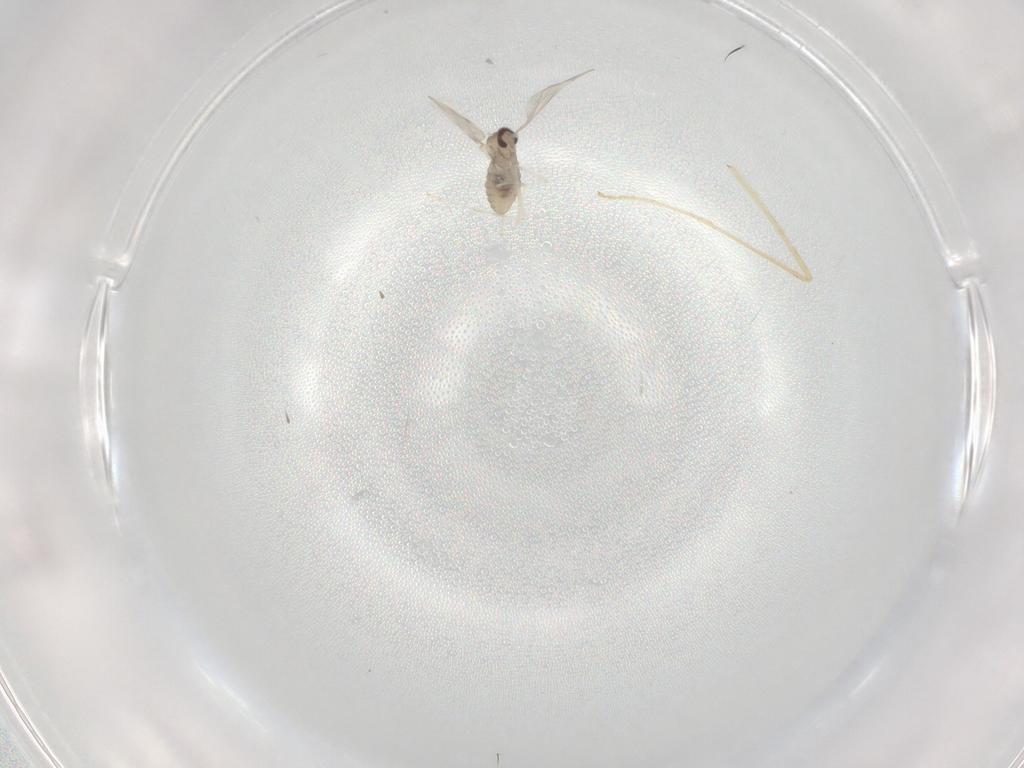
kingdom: Animalia
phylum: Arthropoda
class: Insecta
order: Diptera
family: Limoniidae
